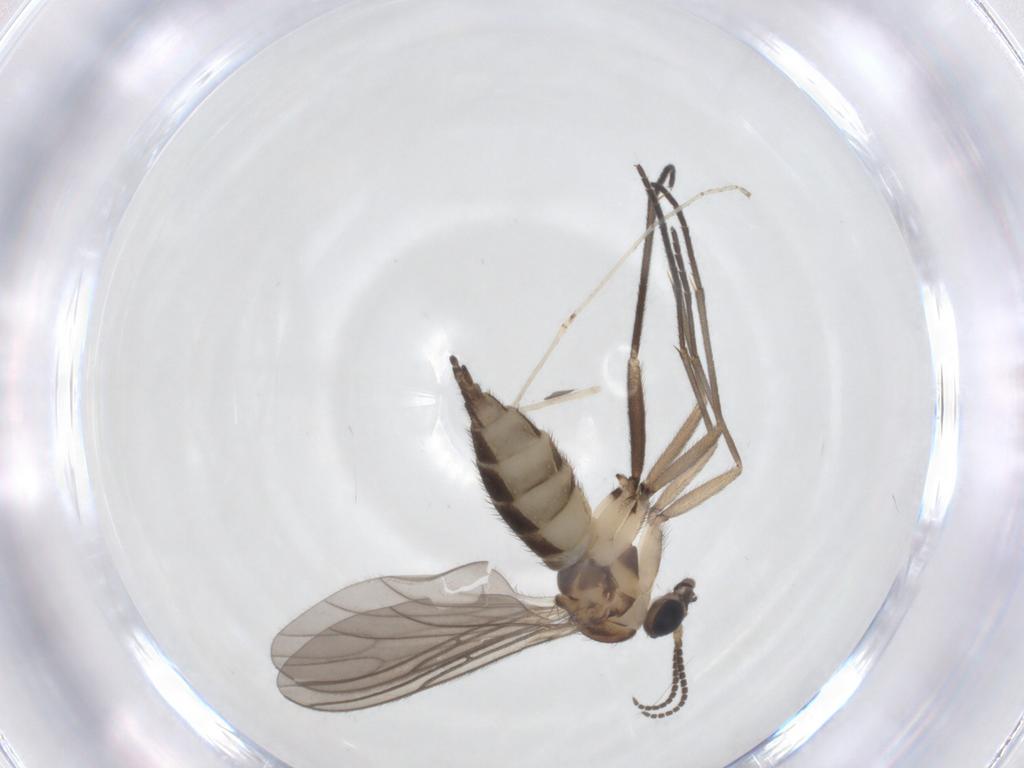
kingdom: Animalia
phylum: Arthropoda
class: Insecta
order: Diptera
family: Sciaridae
